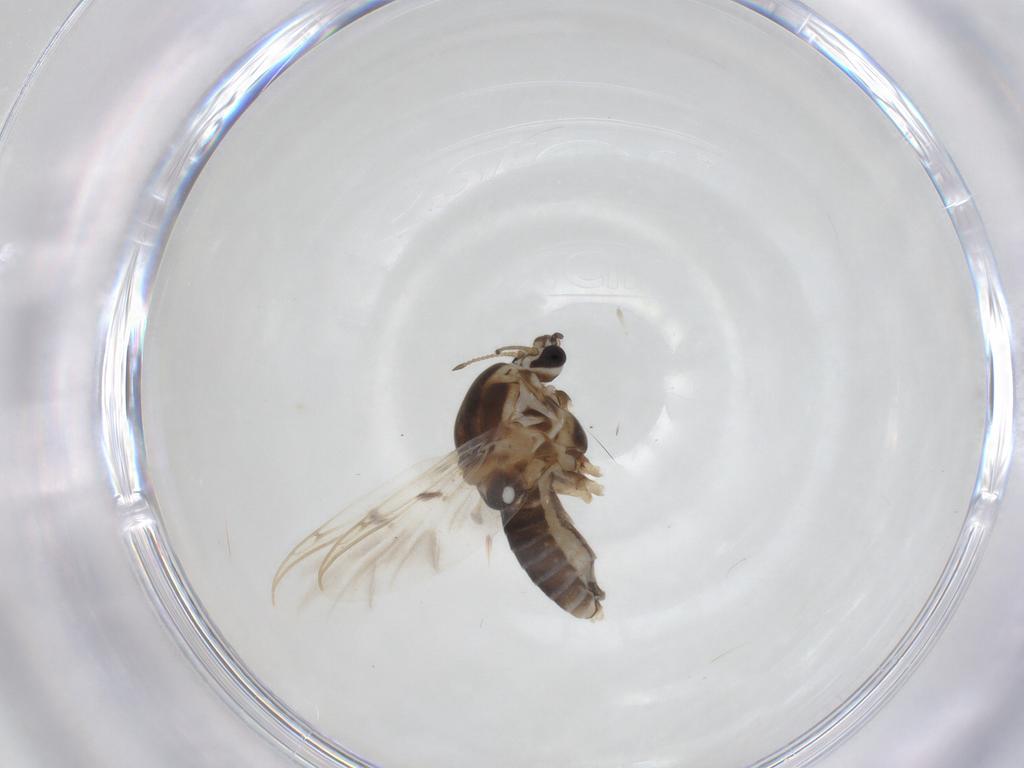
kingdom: Animalia
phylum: Arthropoda
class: Insecta
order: Diptera
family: Chironomidae
